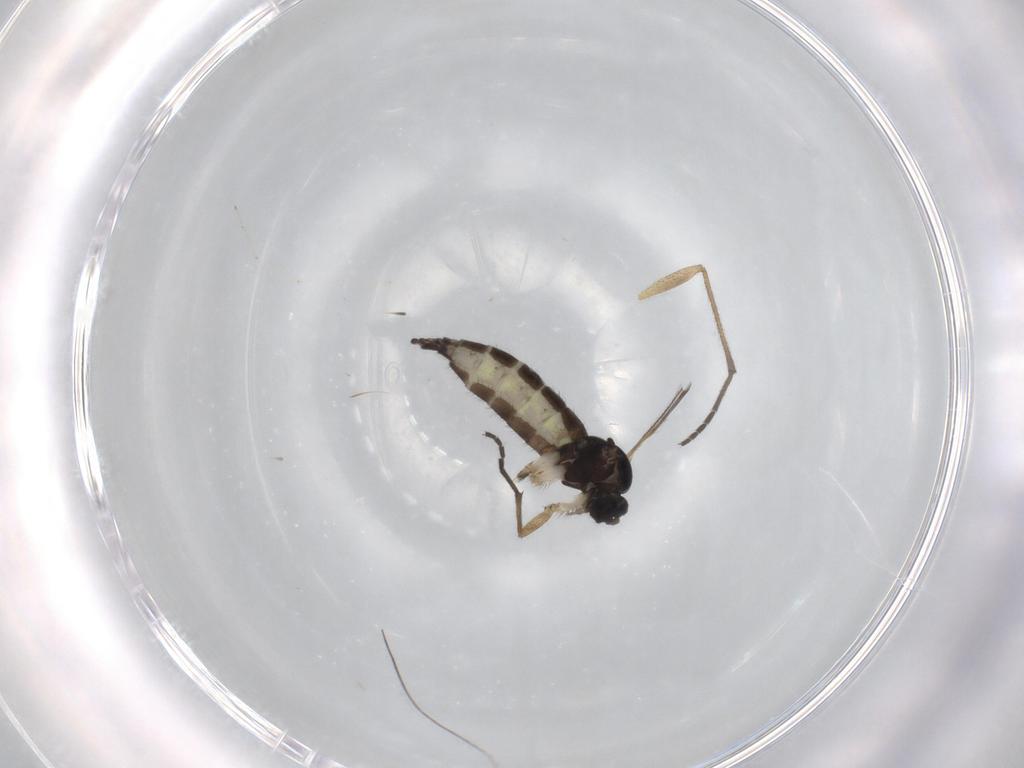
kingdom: Animalia
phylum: Arthropoda
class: Insecta
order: Diptera
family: Sciaridae
